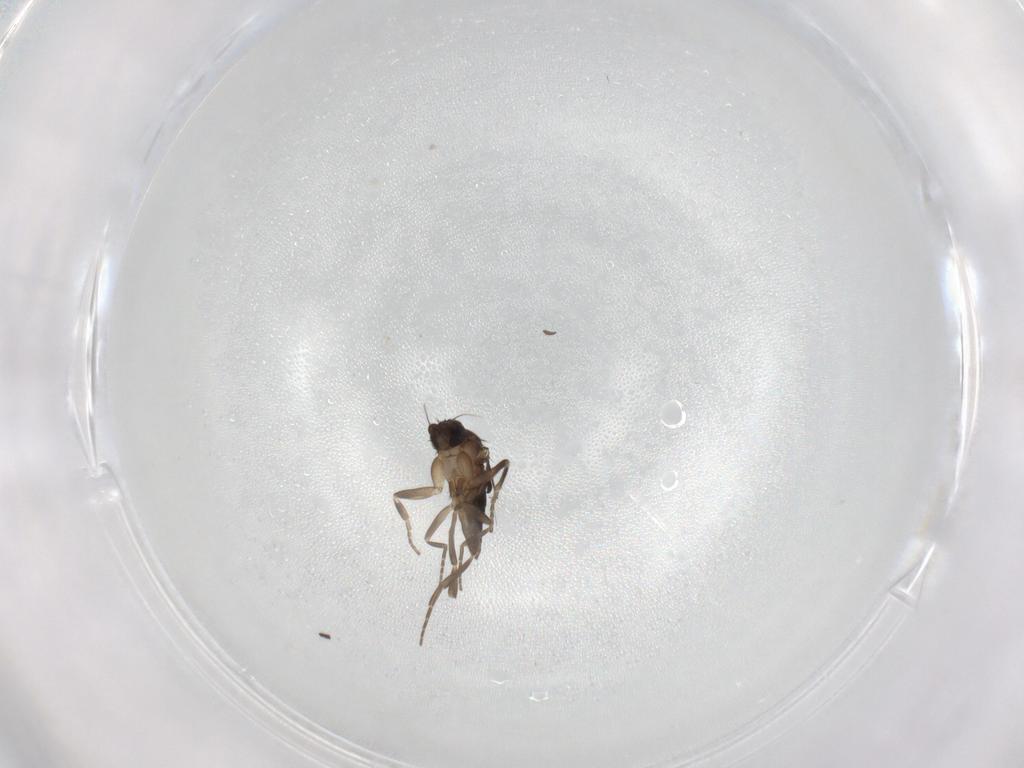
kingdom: Animalia
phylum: Arthropoda
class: Insecta
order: Diptera
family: Phoridae
